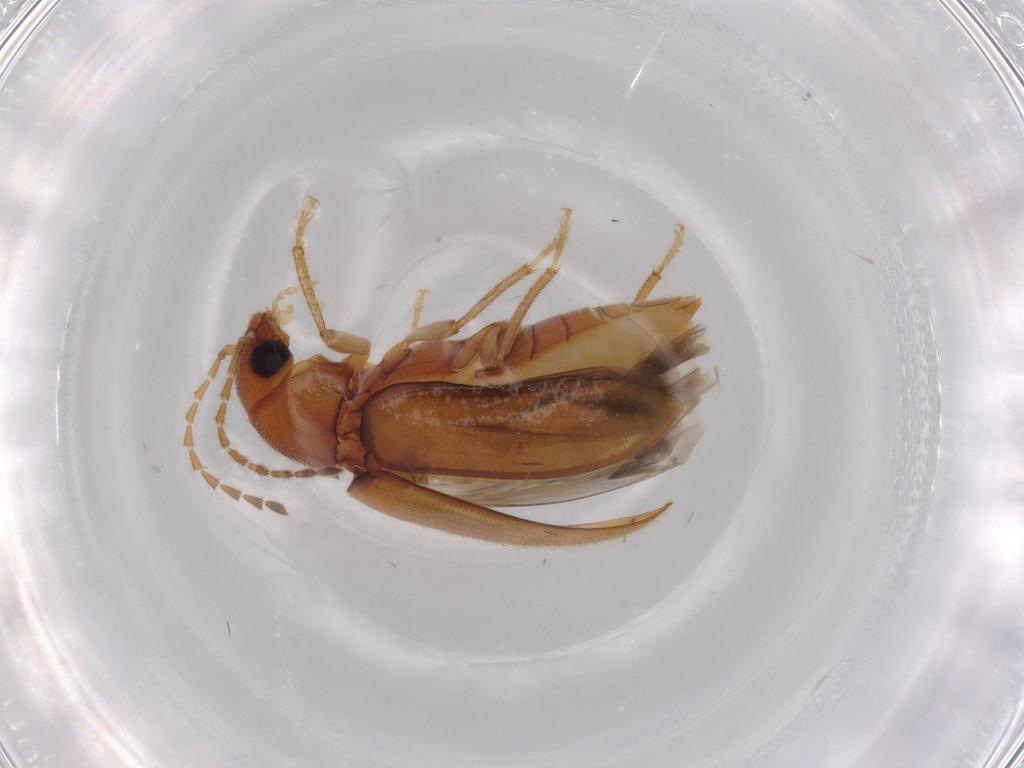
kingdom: Animalia
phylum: Arthropoda
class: Insecta
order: Coleoptera
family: Ptilodactylidae
